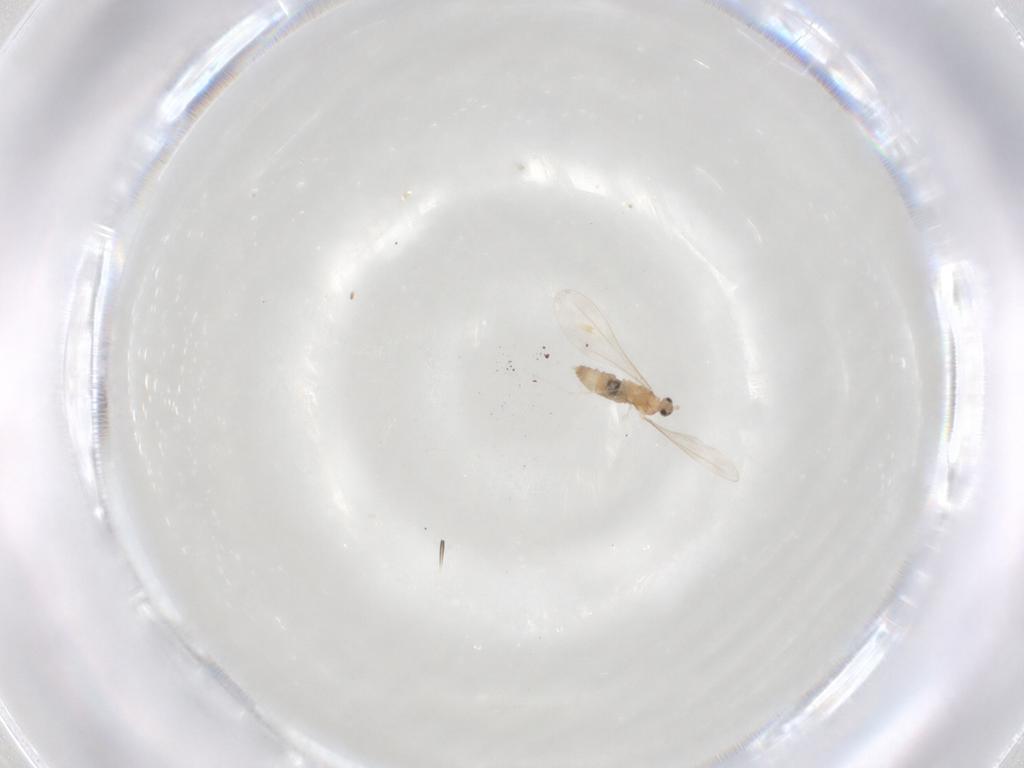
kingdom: Animalia
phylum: Arthropoda
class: Insecta
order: Diptera
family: Cecidomyiidae
